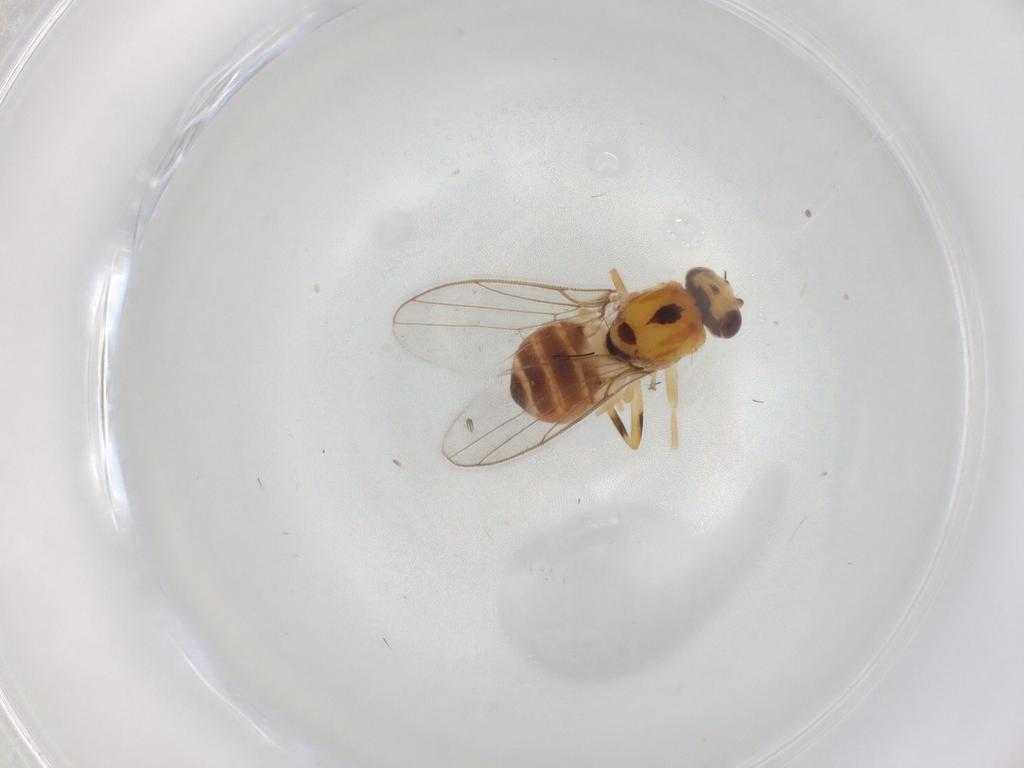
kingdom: Animalia
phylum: Arthropoda
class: Insecta
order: Diptera
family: Chloropidae
